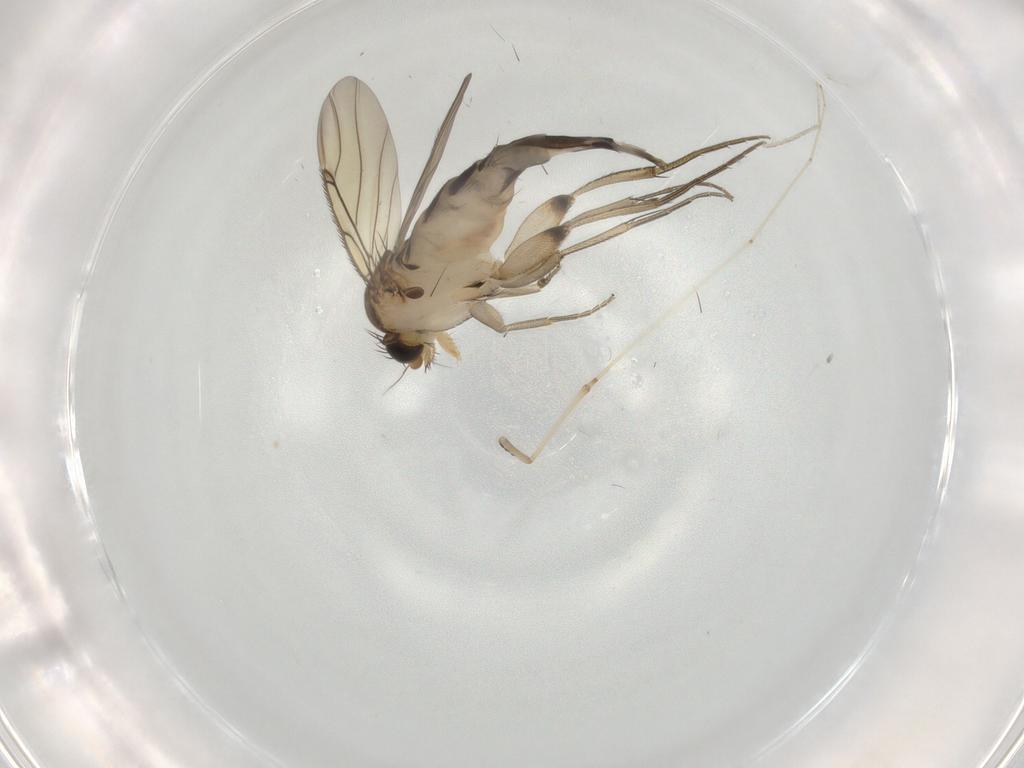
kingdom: Animalia
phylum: Arthropoda
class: Insecta
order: Diptera
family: Phoridae
